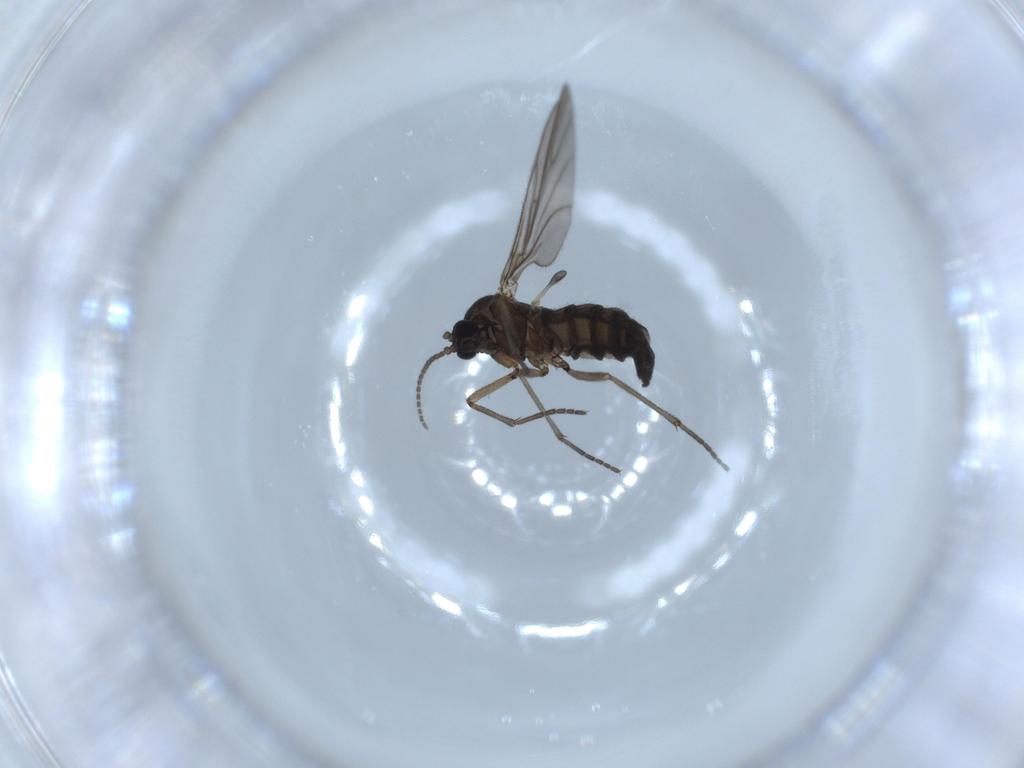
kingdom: Animalia
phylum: Arthropoda
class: Insecta
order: Diptera
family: Sciaridae
